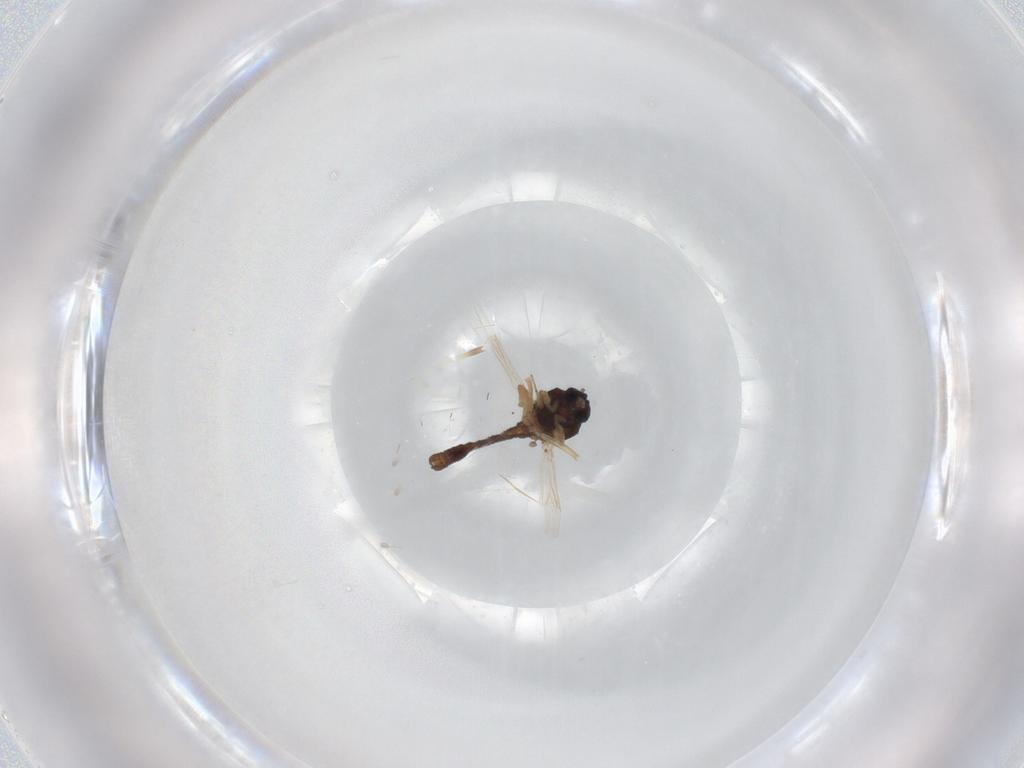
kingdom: Animalia
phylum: Arthropoda
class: Insecta
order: Diptera
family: Ceratopogonidae
